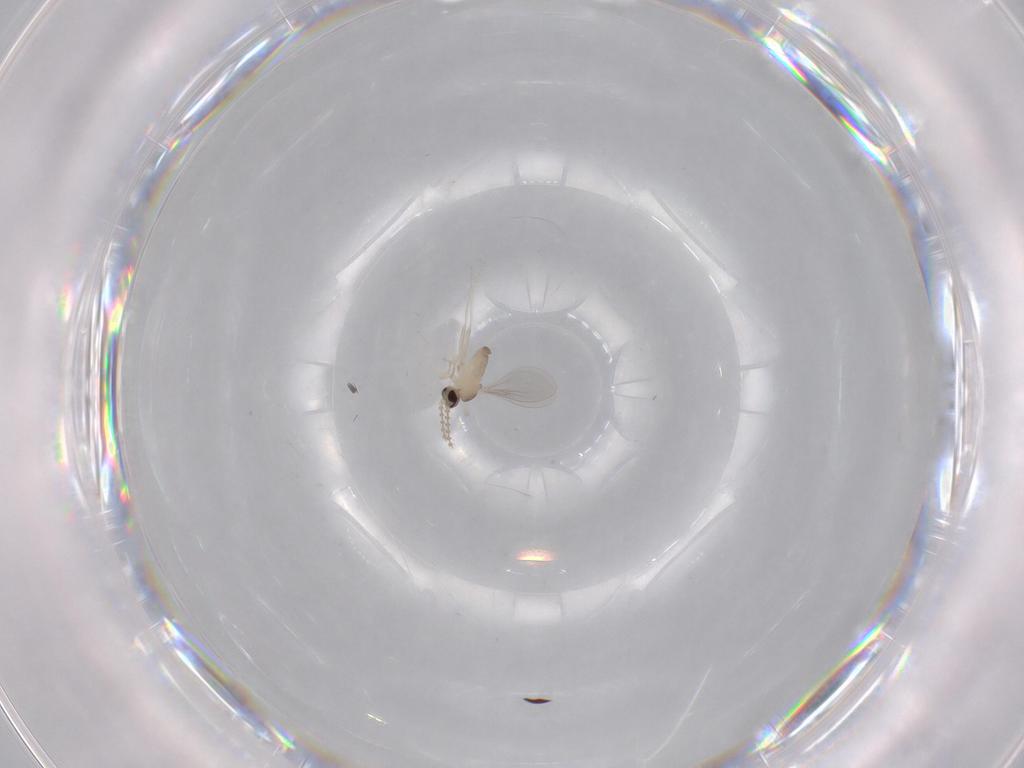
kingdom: Animalia
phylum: Arthropoda
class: Insecta
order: Diptera
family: Cecidomyiidae
